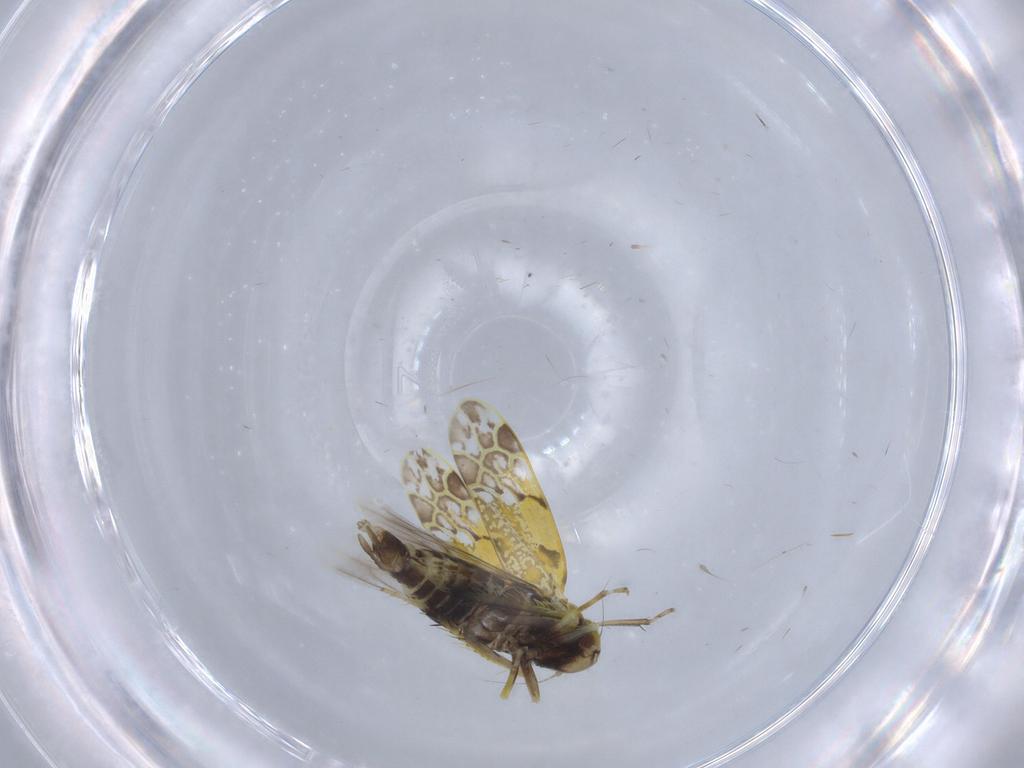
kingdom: Animalia
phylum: Arthropoda
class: Insecta
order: Hemiptera
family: Cicadellidae
